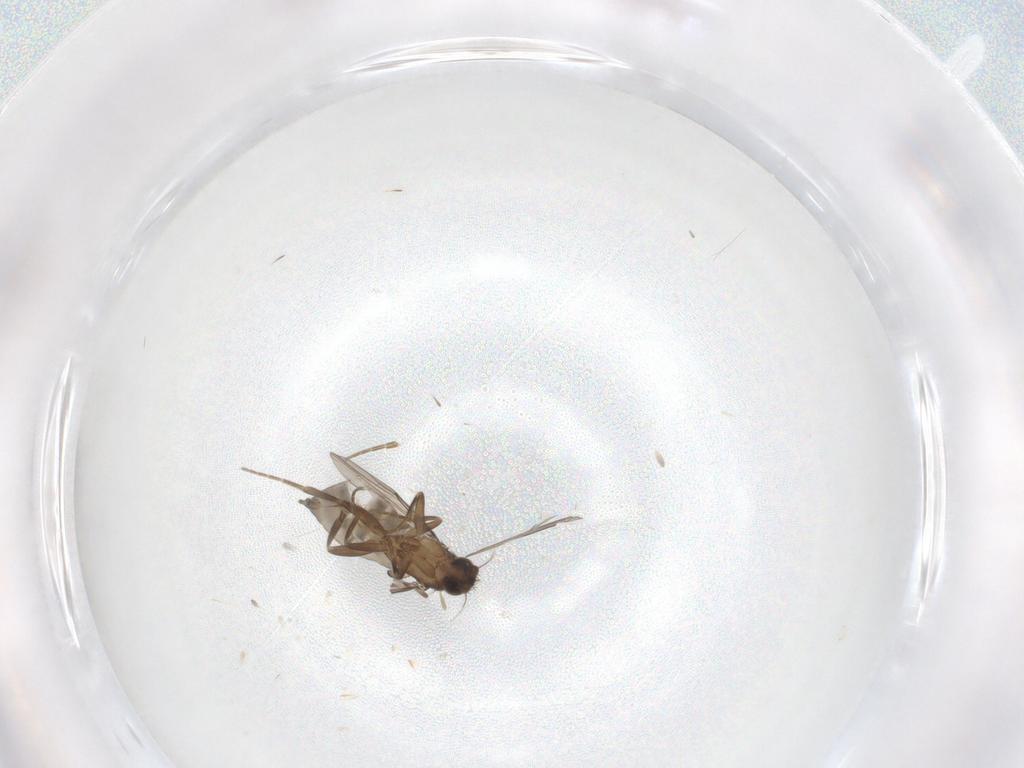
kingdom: Animalia
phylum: Arthropoda
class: Insecta
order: Diptera
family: Phoridae
